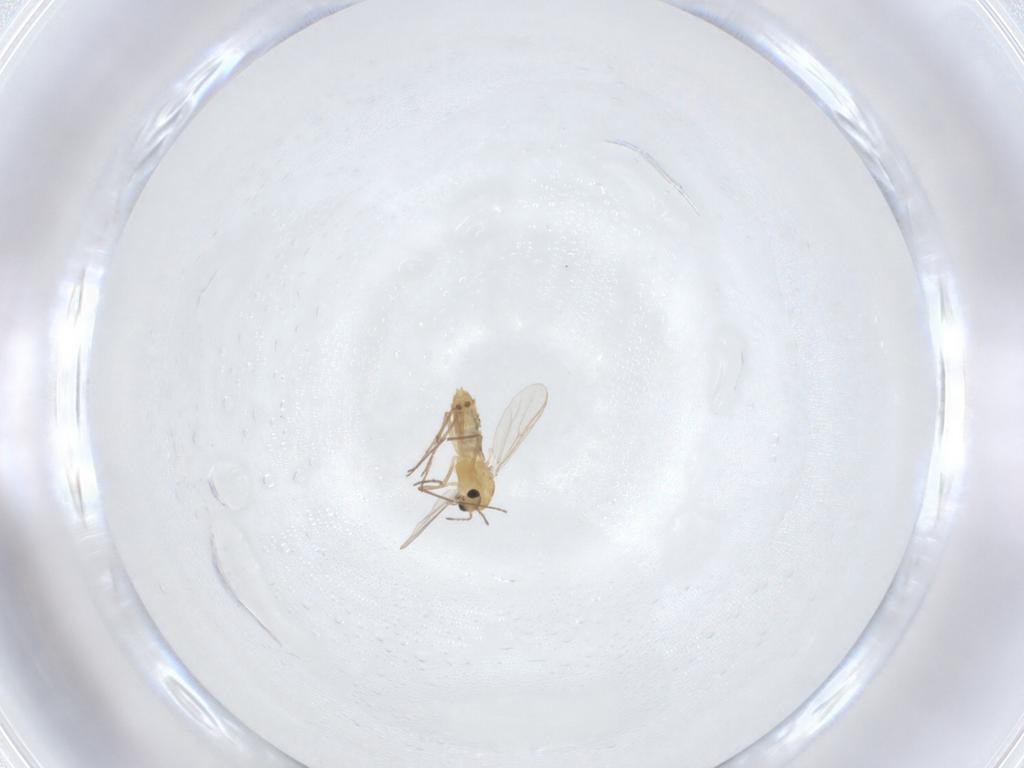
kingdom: Animalia
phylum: Arthropoda
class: Insecta
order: Diptera
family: Chironomidae
